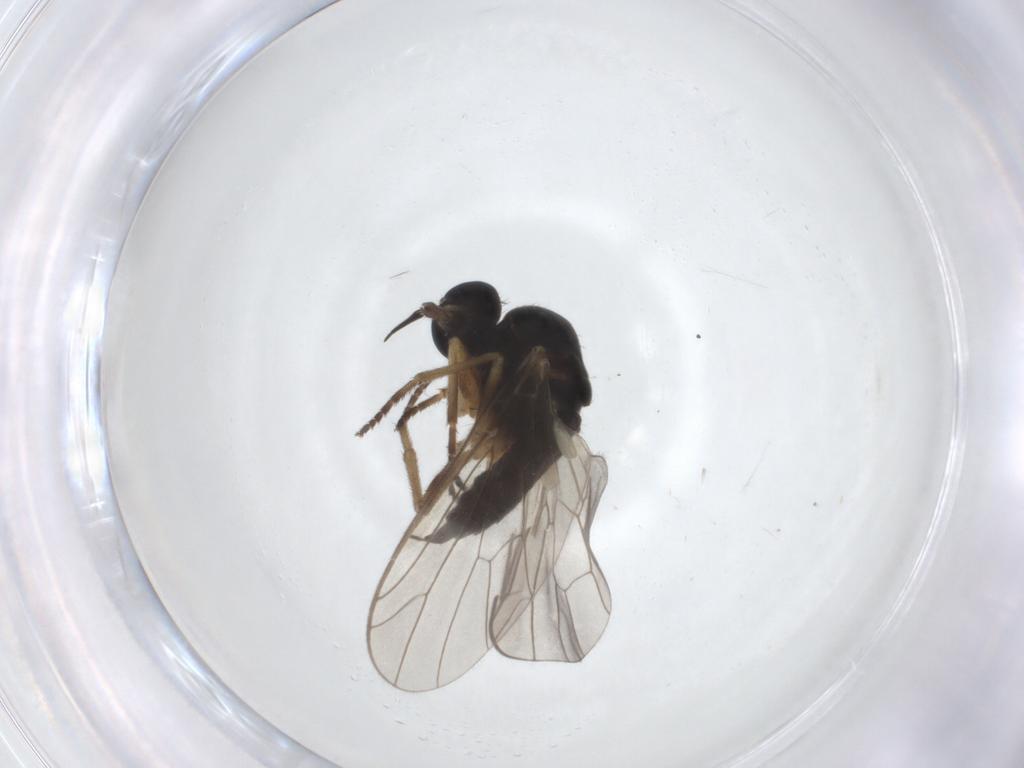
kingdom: Animalia
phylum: Arthropoda
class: Insecta
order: Diptera
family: Empididae
